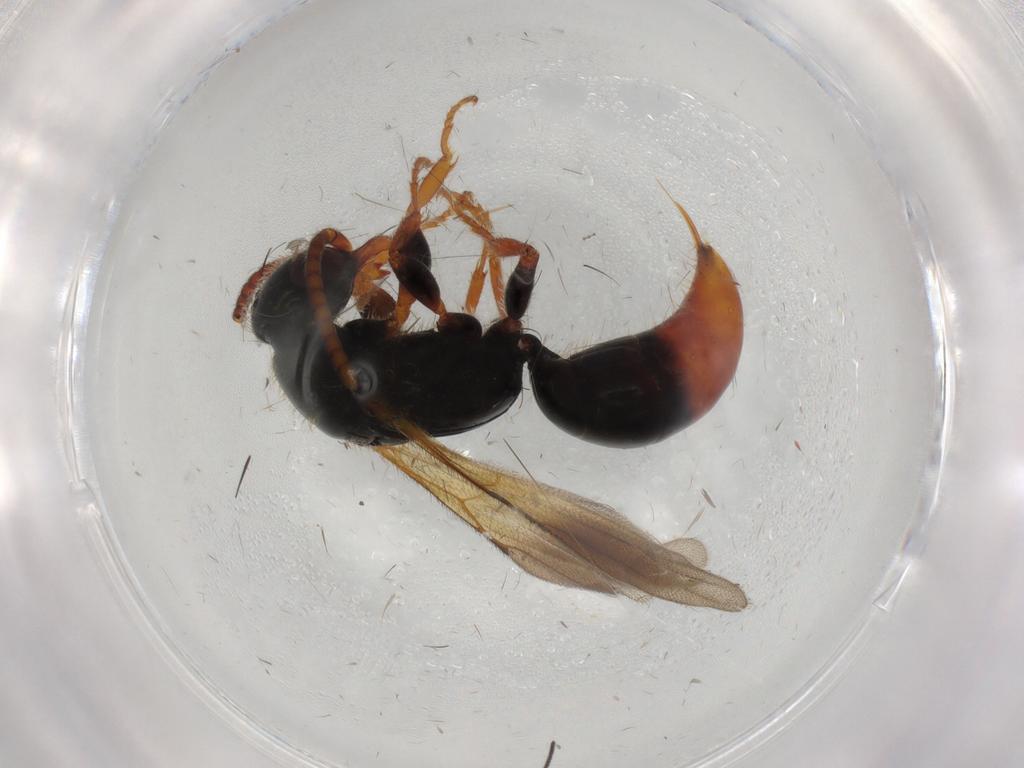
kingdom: Animalia
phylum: Arthropoda
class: Insecta
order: Hymenoptera
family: Bethylidae
